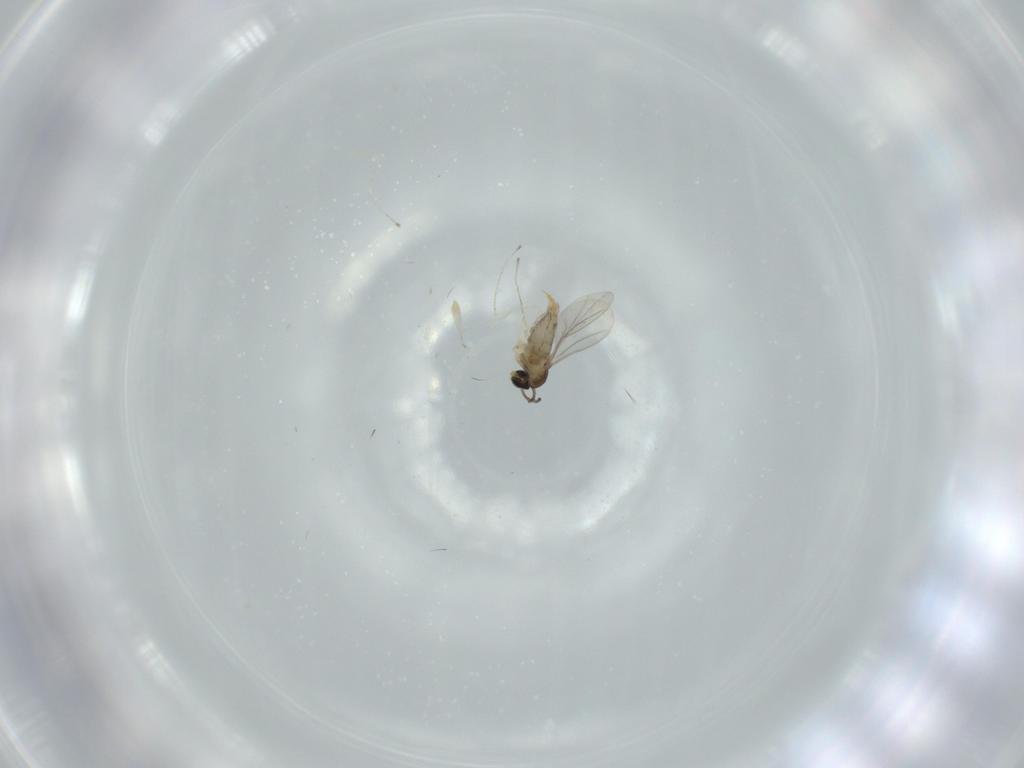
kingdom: Animalia
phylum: Arthropoda
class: Insecta
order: Diptera
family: Cecidomyiidae
